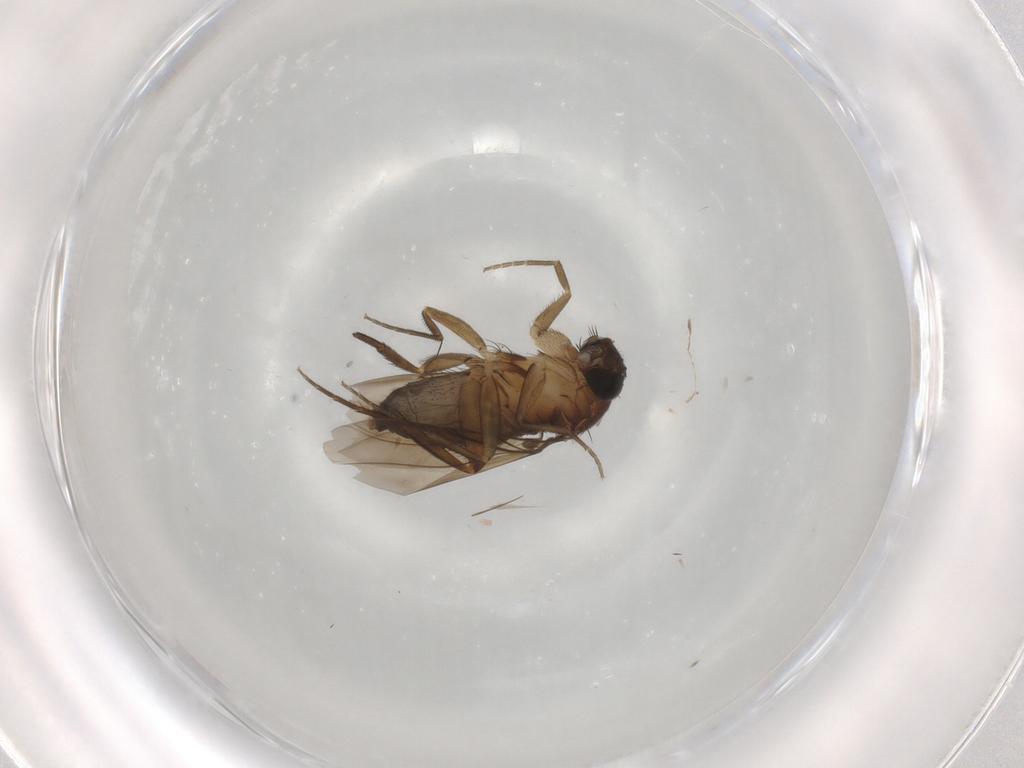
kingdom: Animalia
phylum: Arthropoda
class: Insecta
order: Diptera
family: Phoridae
